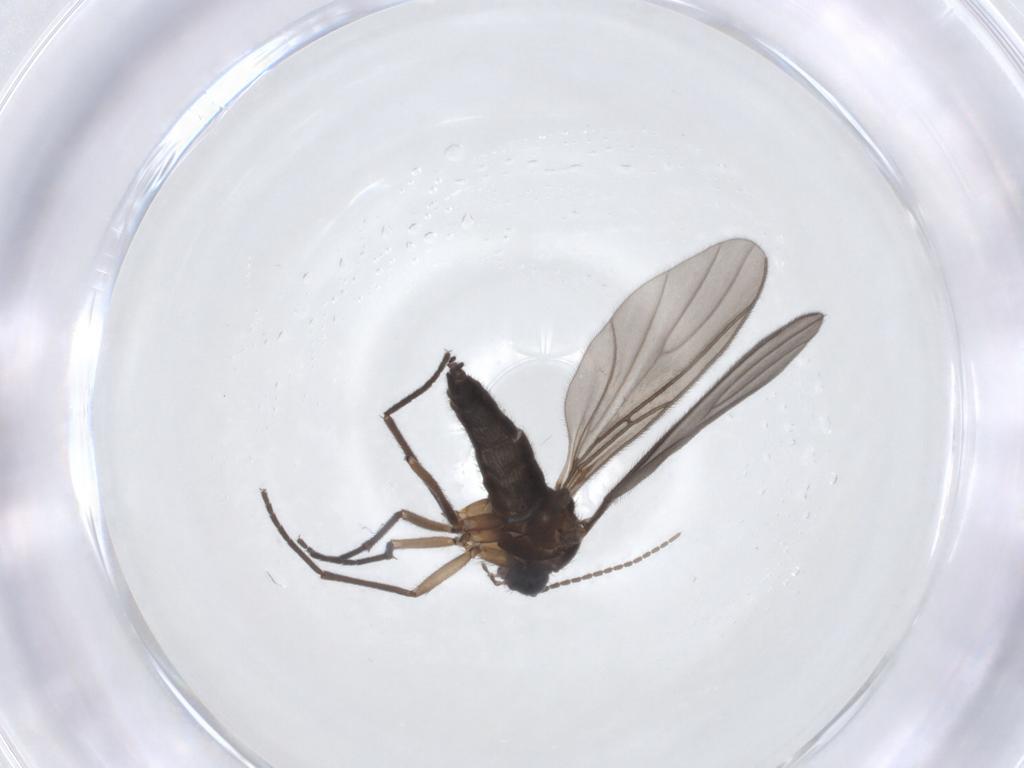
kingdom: Animalia
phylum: Arthropoda
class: Insecta
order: Diptera
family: Sciaridae
